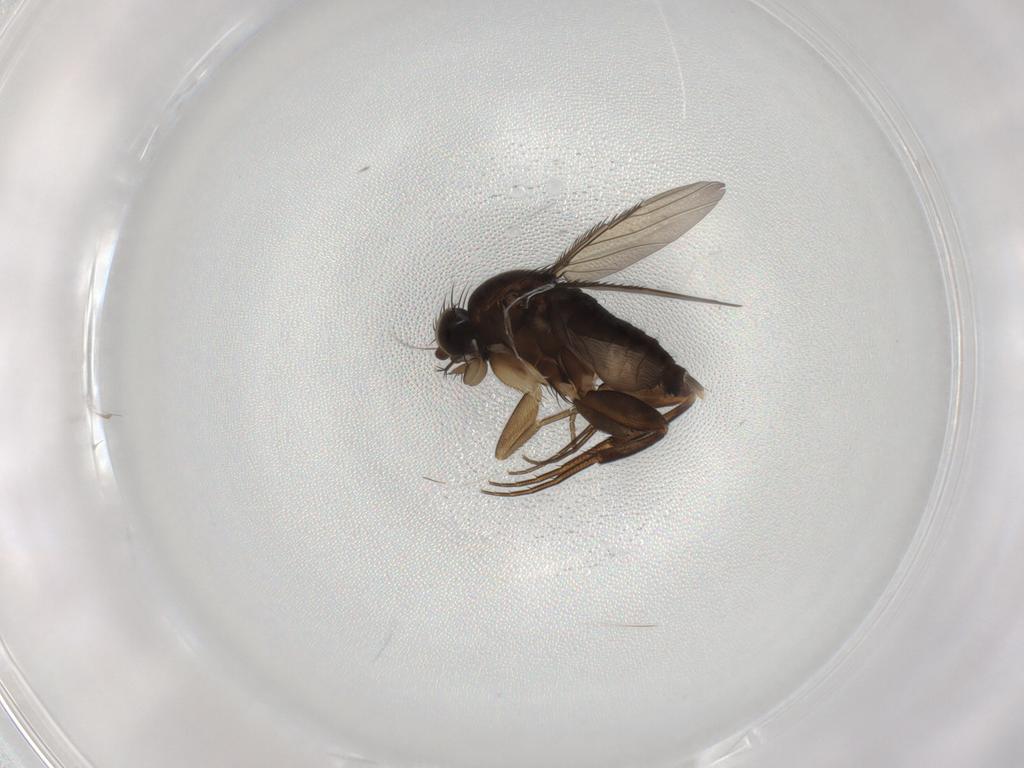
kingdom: Animalia
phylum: Arthropoda
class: Insecta
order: Diptera
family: Phoridae
